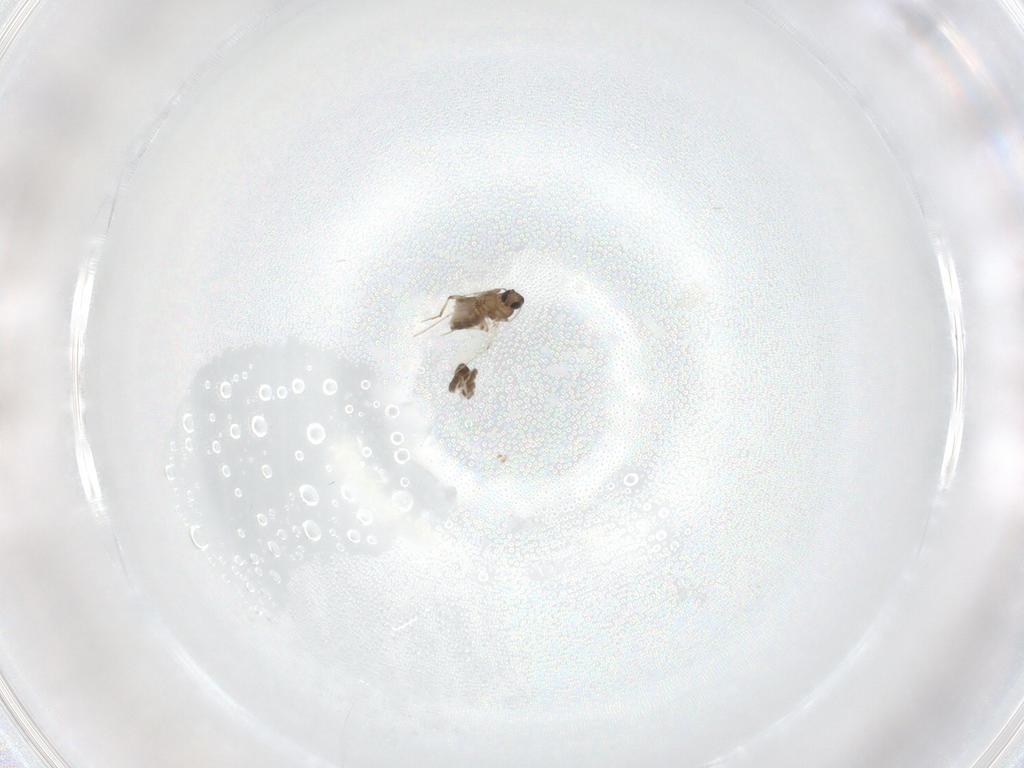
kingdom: Animalia
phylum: Arthropoda
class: Insecta
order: Diptera
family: Ceratopogonidae
